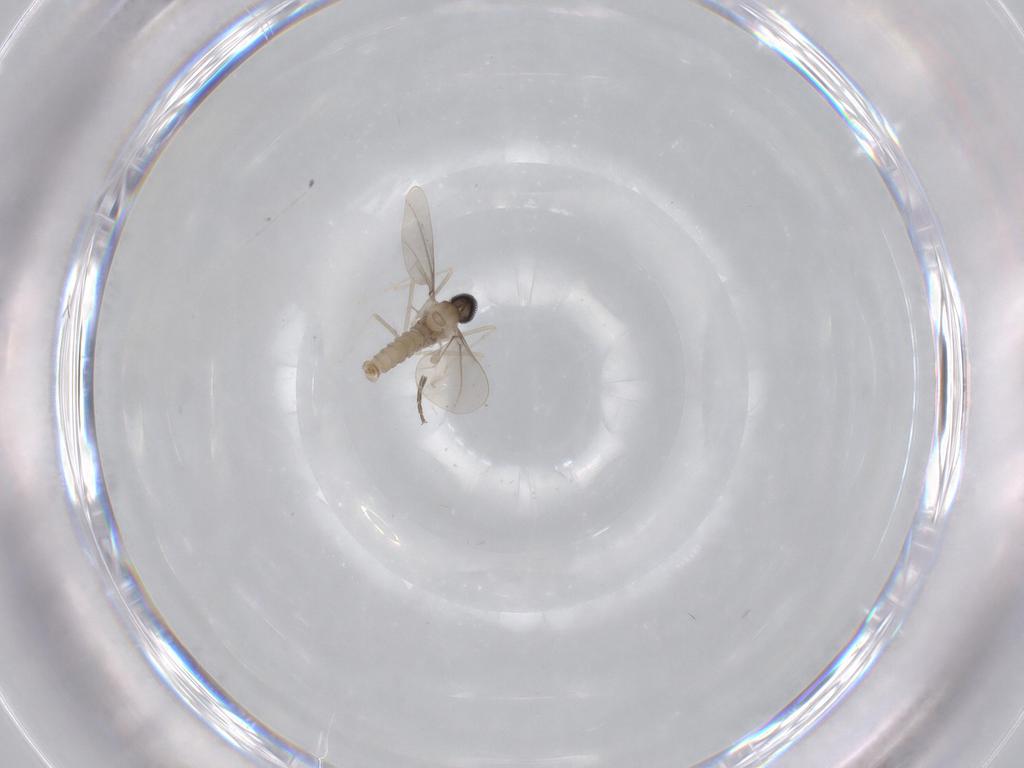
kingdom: Animalia
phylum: Arthropoda
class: Insecta
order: Diptera
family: Cecidomyiidae
